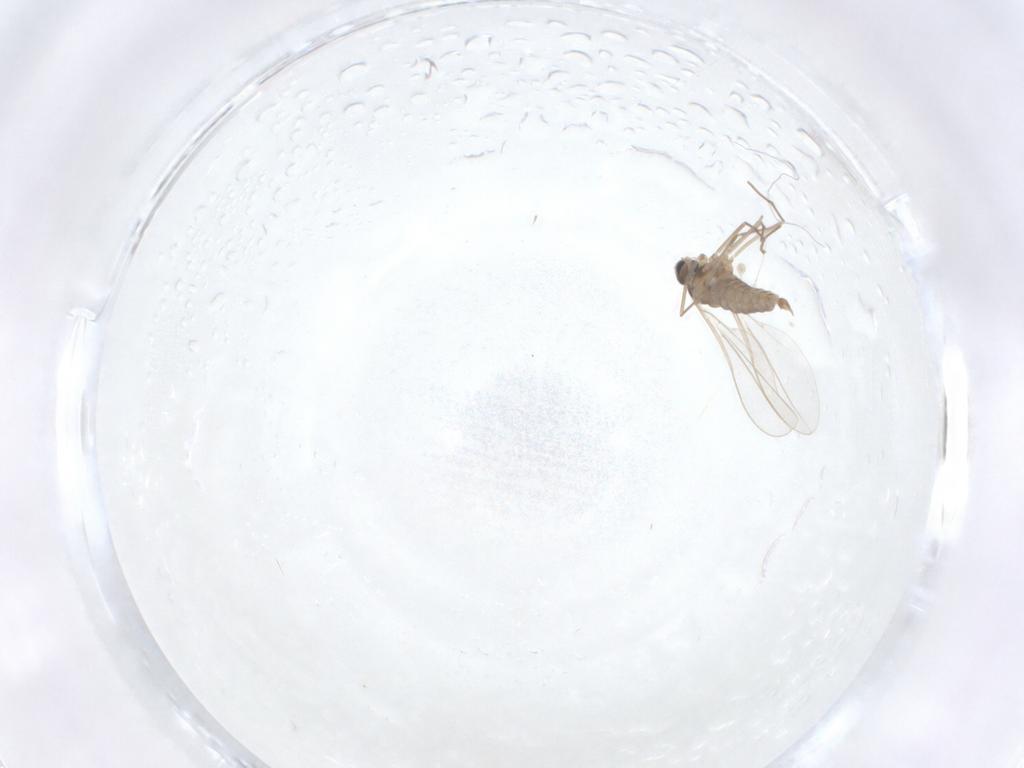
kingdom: Animalia
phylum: Arthropoda
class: Insecta
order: Diptera
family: Cecidomyiidae
